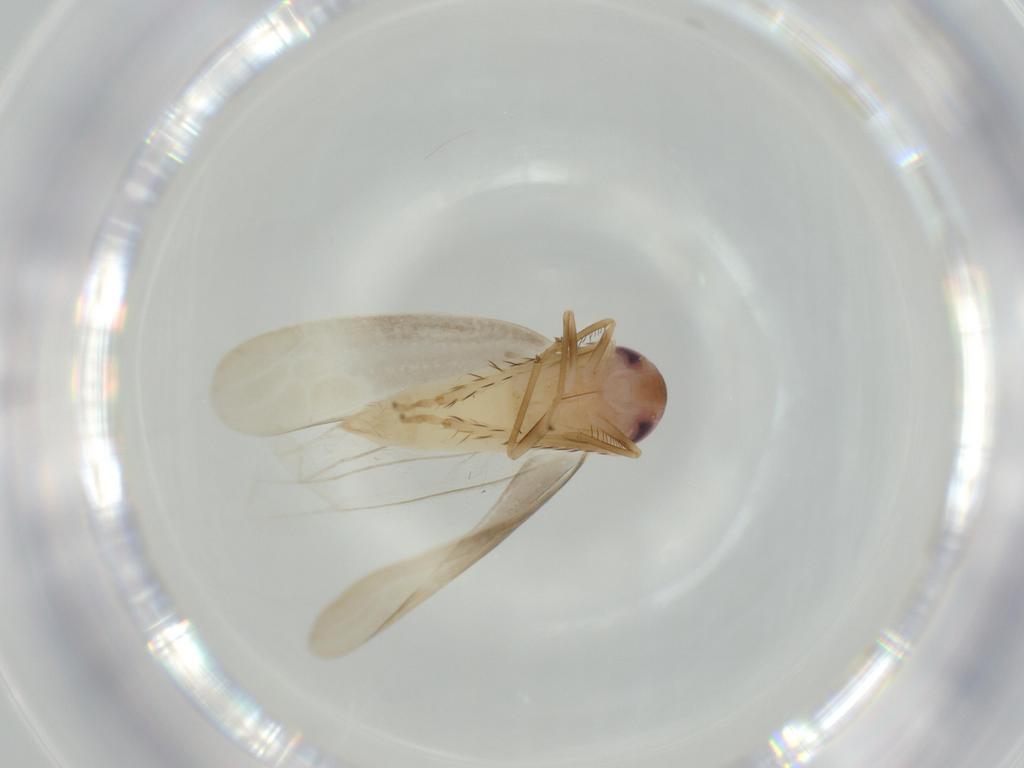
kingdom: Animalia
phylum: Arthropoda
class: Insecta
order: Hemiptera
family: Cicadellidae
